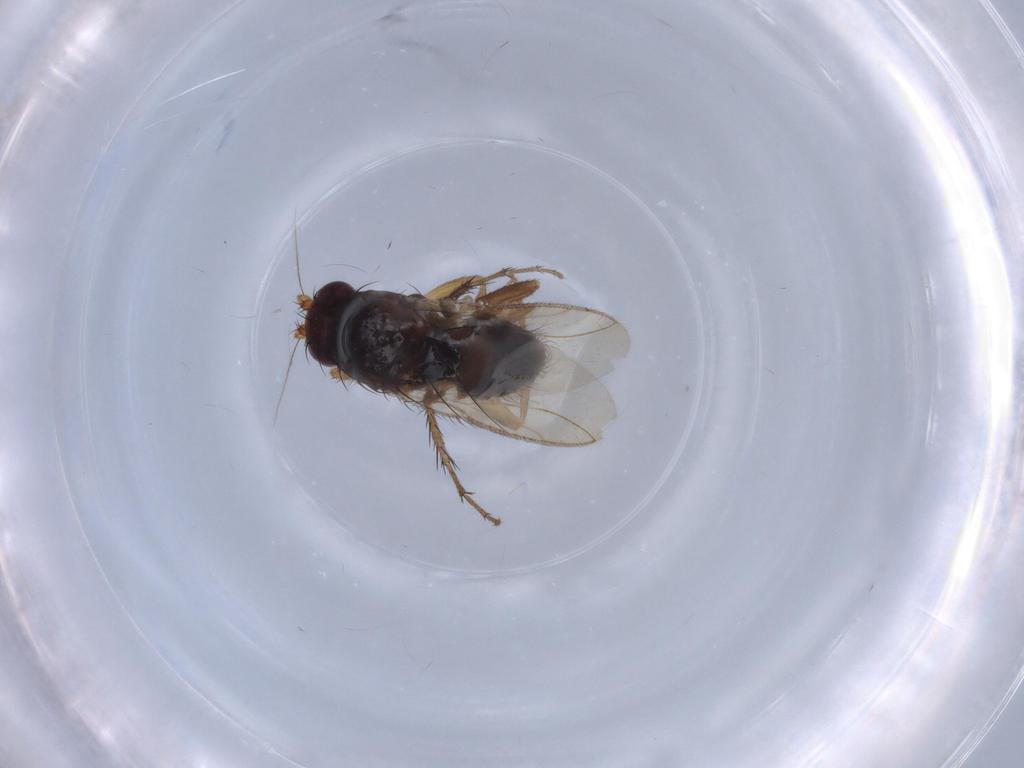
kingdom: Animalia
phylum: Arthropoda
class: Insecta
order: Diptera
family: Sphaeroceridae
